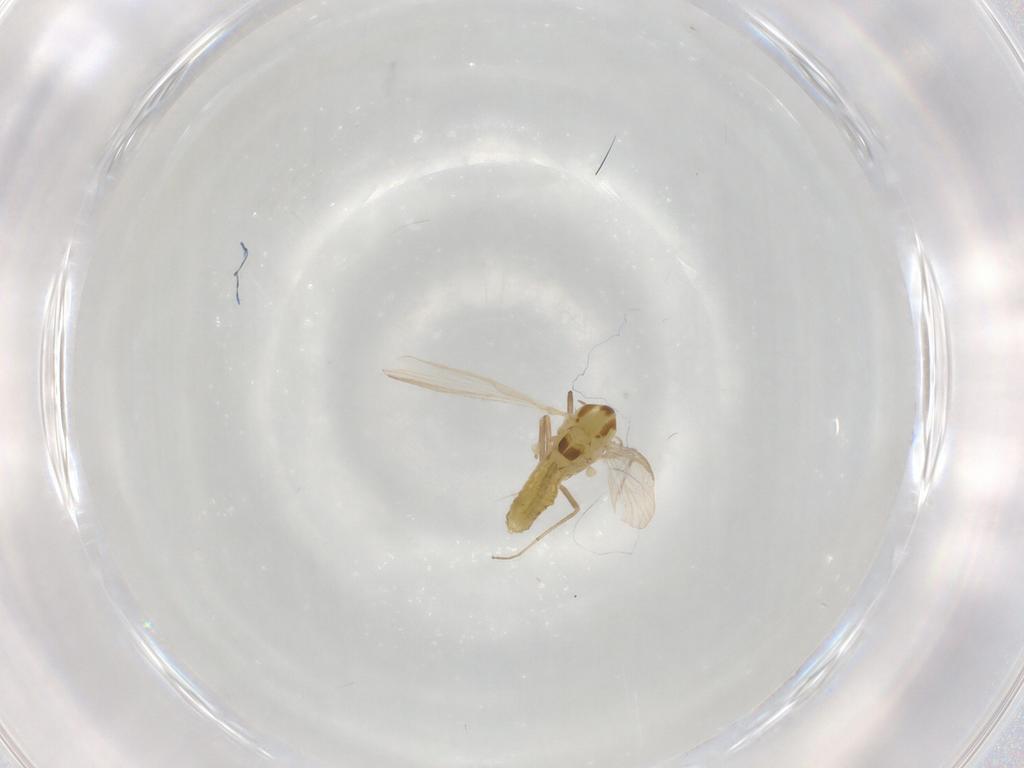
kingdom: Animalia
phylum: Arthropoda
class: Insecta
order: Diptera
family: Chironomidae
